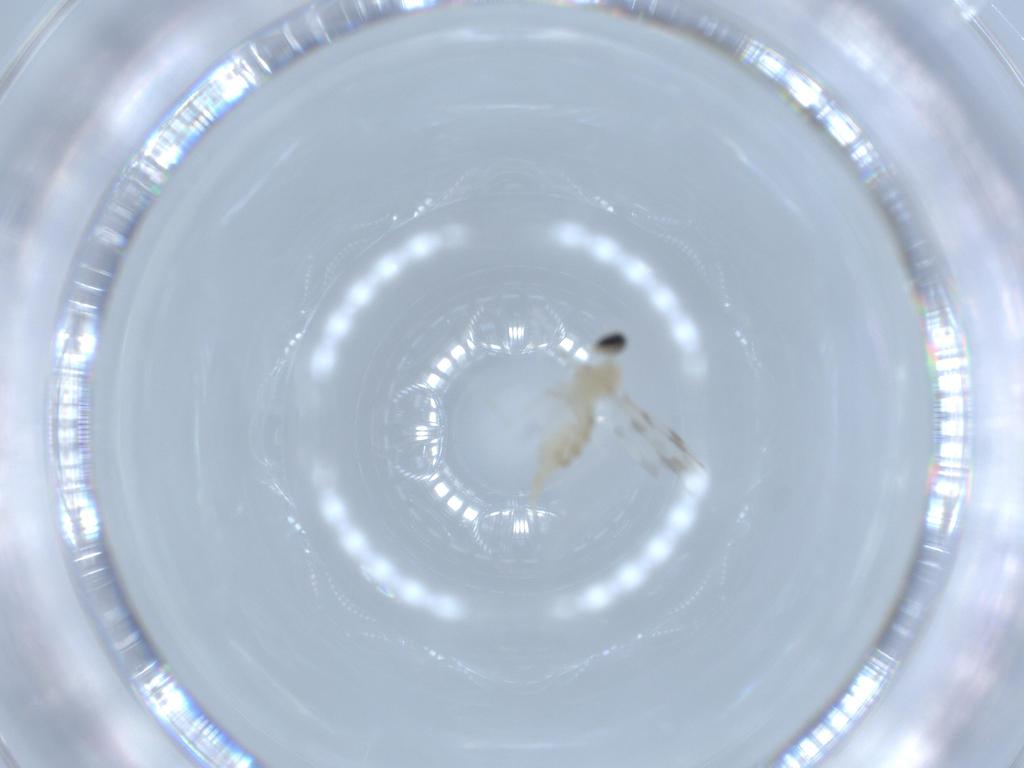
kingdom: Animalia
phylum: Arthropoda
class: Insecta
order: Diptera
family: Cecidomyiidae
